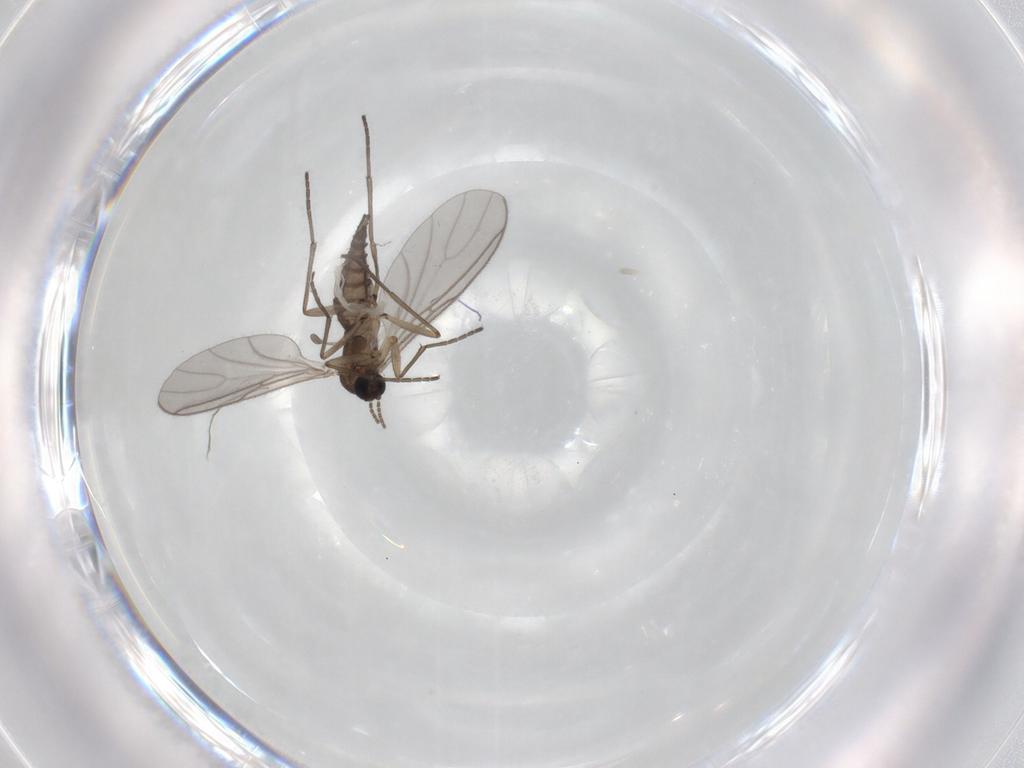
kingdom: Animalia
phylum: Arthropoda
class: Insecta
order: Diptera
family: Sciaridae
